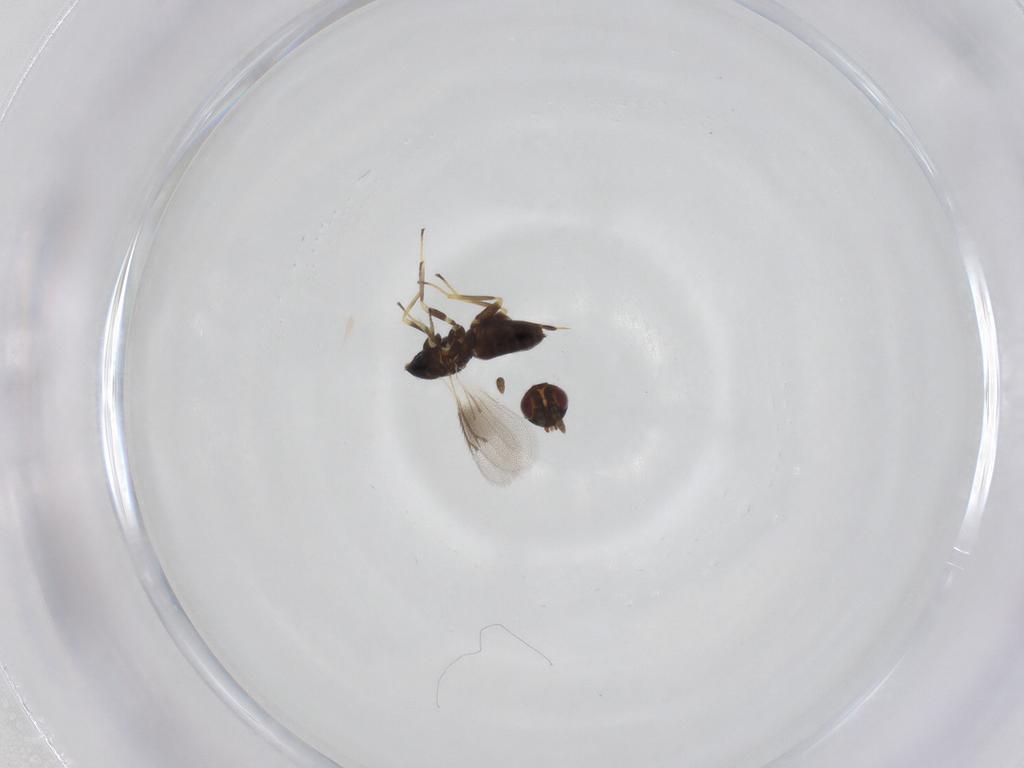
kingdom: Animalia
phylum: Arthropoda
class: Insecta
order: Hymenoptera
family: Eulophidae
